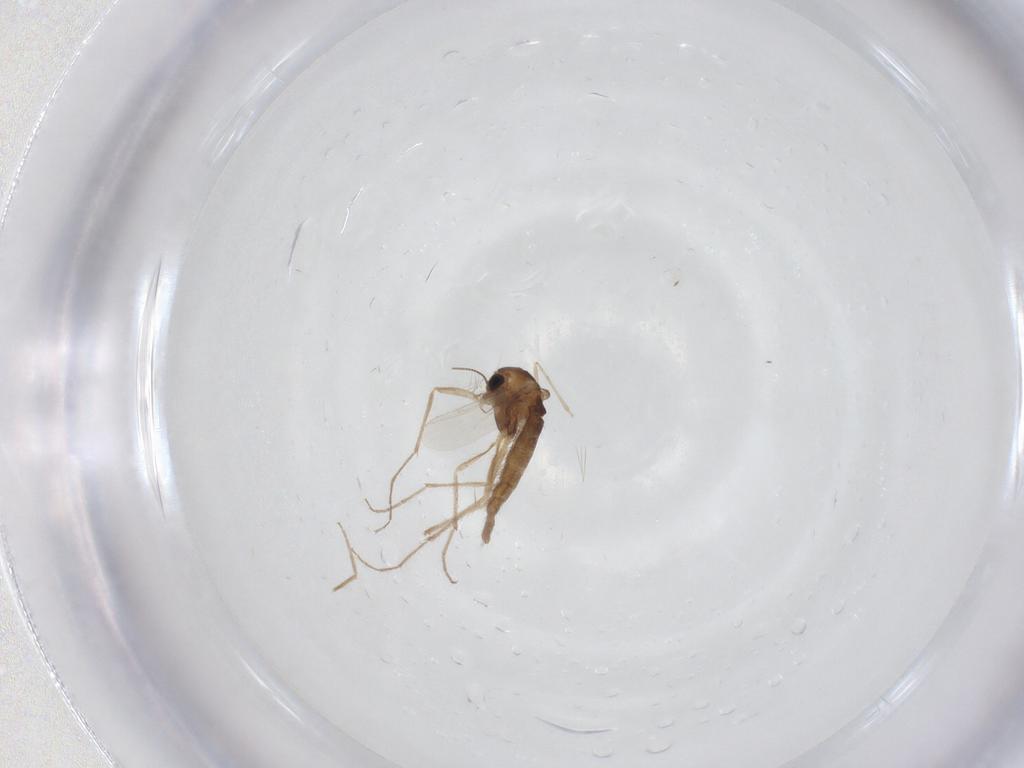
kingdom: Animalia
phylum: Arthropoda
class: Insecta
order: Diptera
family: Chironomidae
